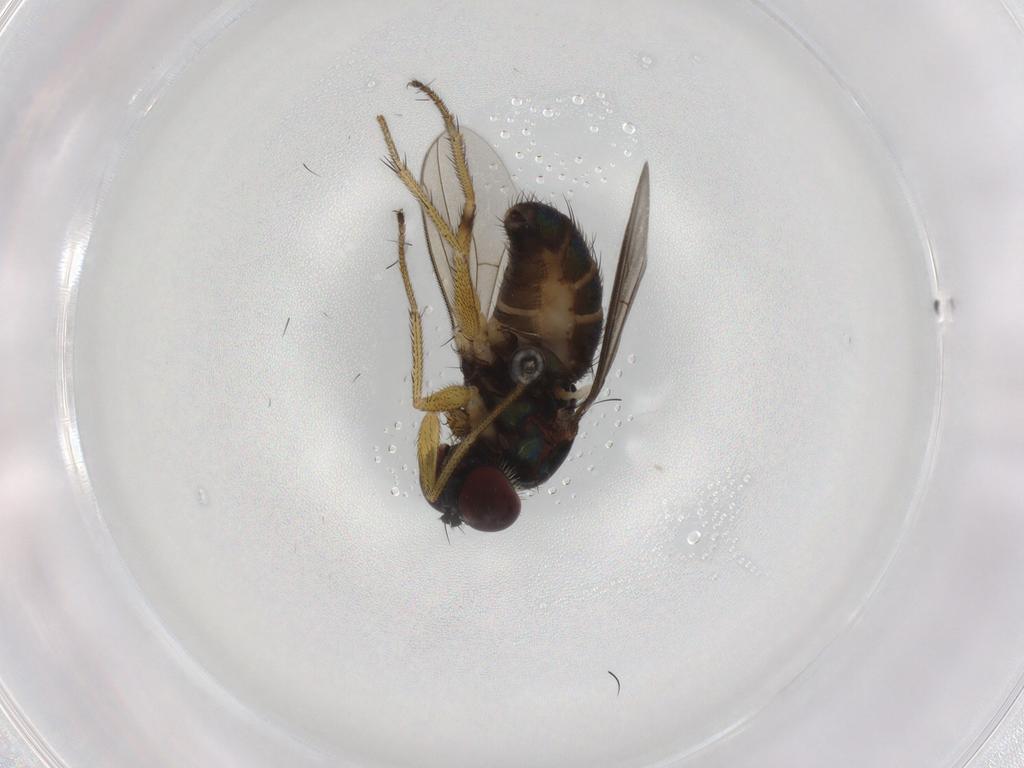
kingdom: Animalia
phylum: Arthropoda
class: Insecta
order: Diptera
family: Dolichopodidae
